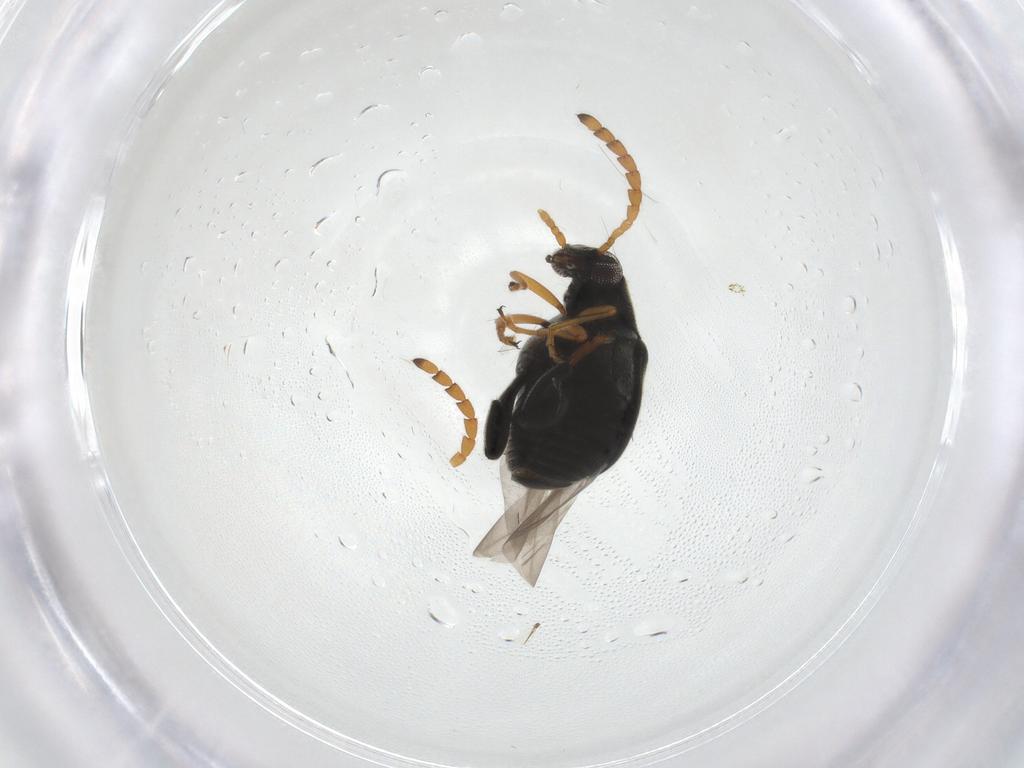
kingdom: Animalia
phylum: Arthropoda
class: Insecta
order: Coleoptera
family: Chrysomelidae
